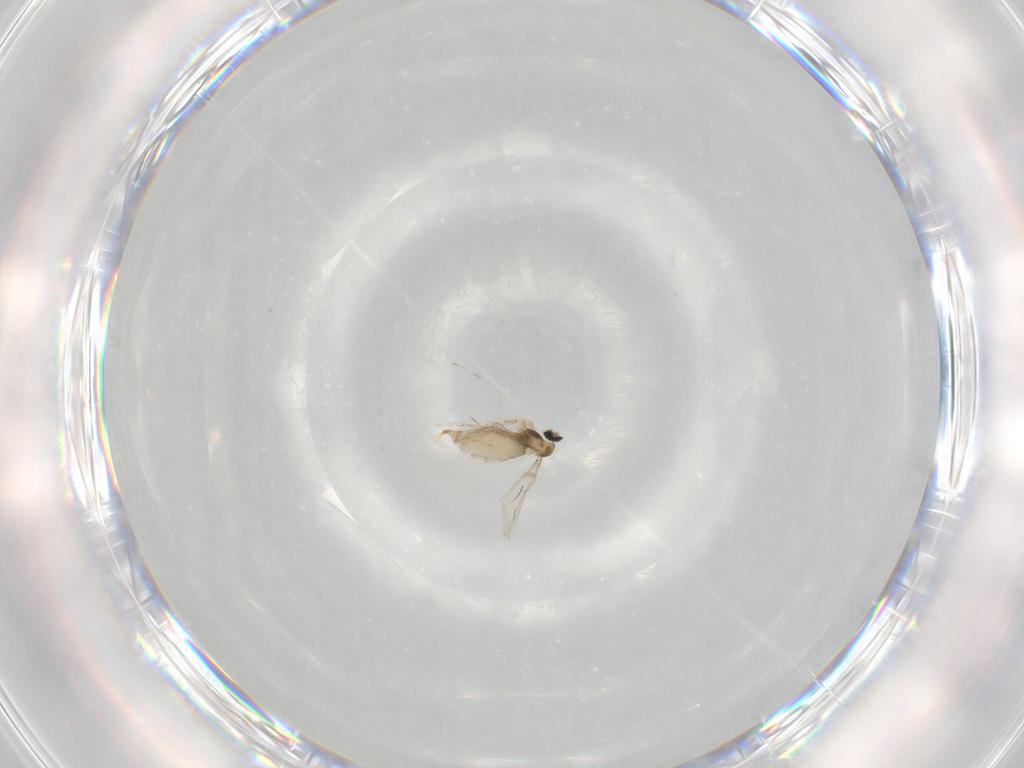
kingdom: Animalia
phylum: Arthropoda
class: Insecta
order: Diptera
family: Cecidomyiidae
